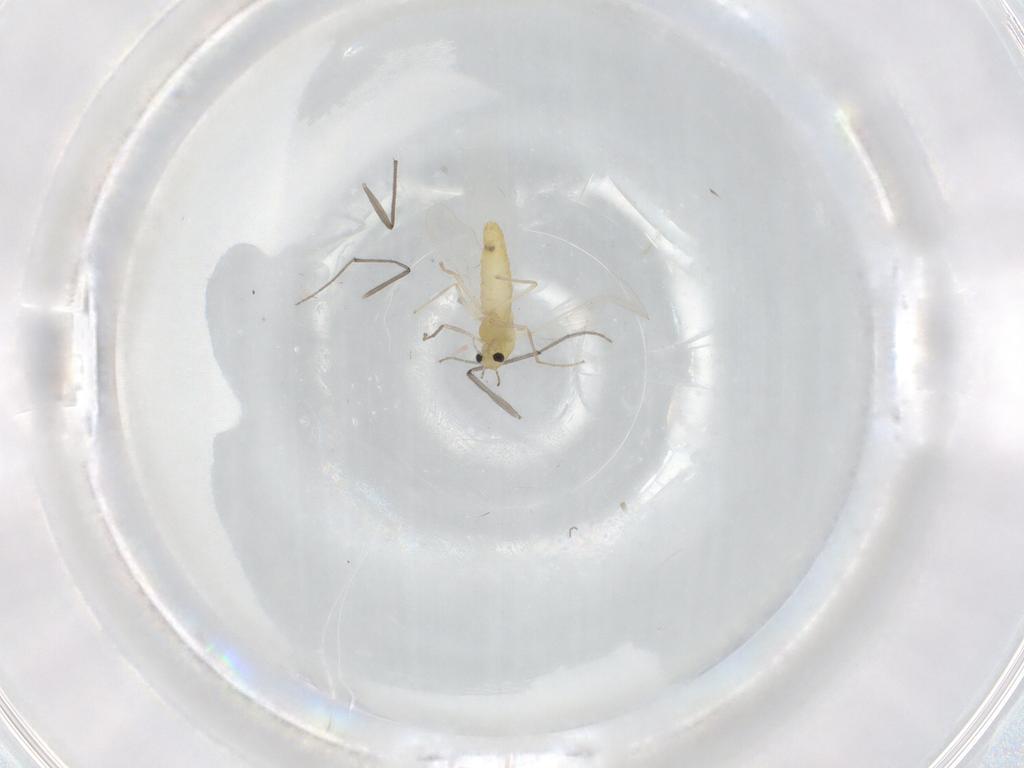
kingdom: Animalia
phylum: Arthropoda
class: Insecta
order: Diptera
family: Chironomidae
